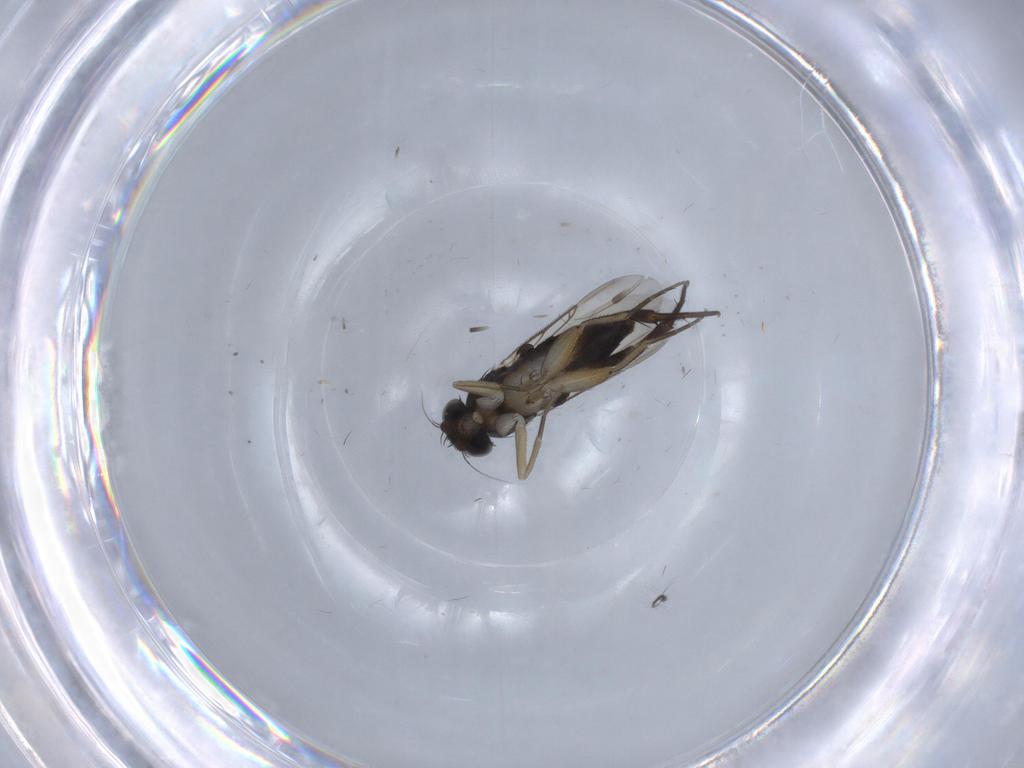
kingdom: Animalia
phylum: Arthropoda
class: Insecta
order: Diptera
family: Phoridae
